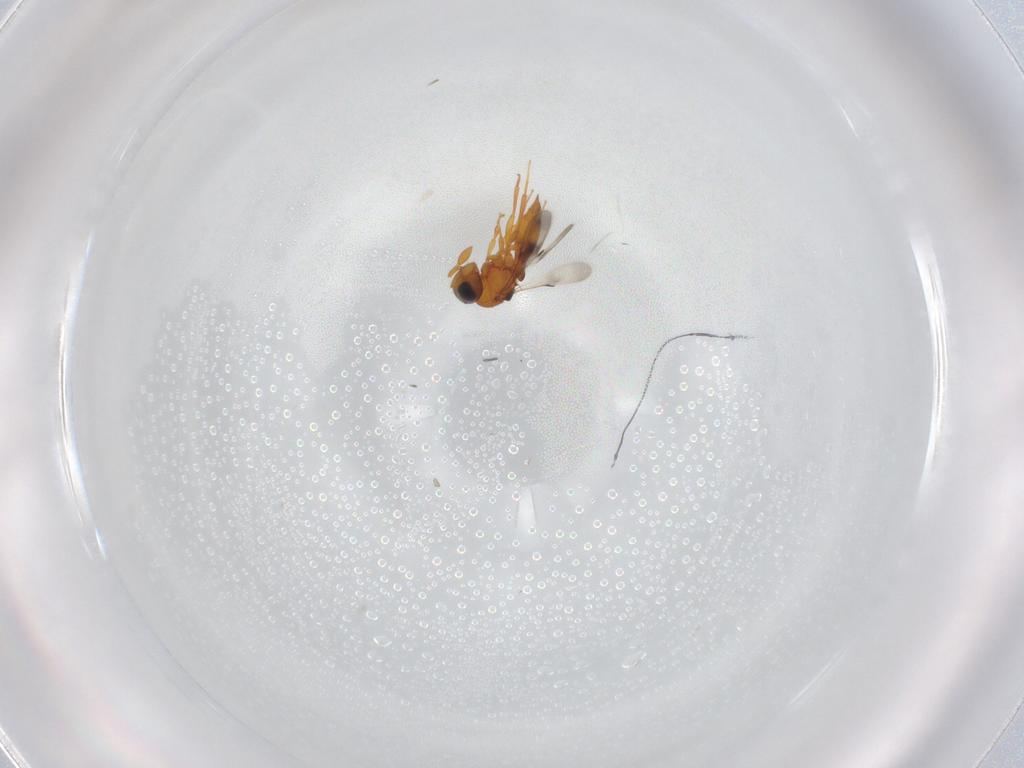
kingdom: Animalia
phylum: Arthropoda
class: Insecta
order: Hymenoptera
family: Scelionidae
